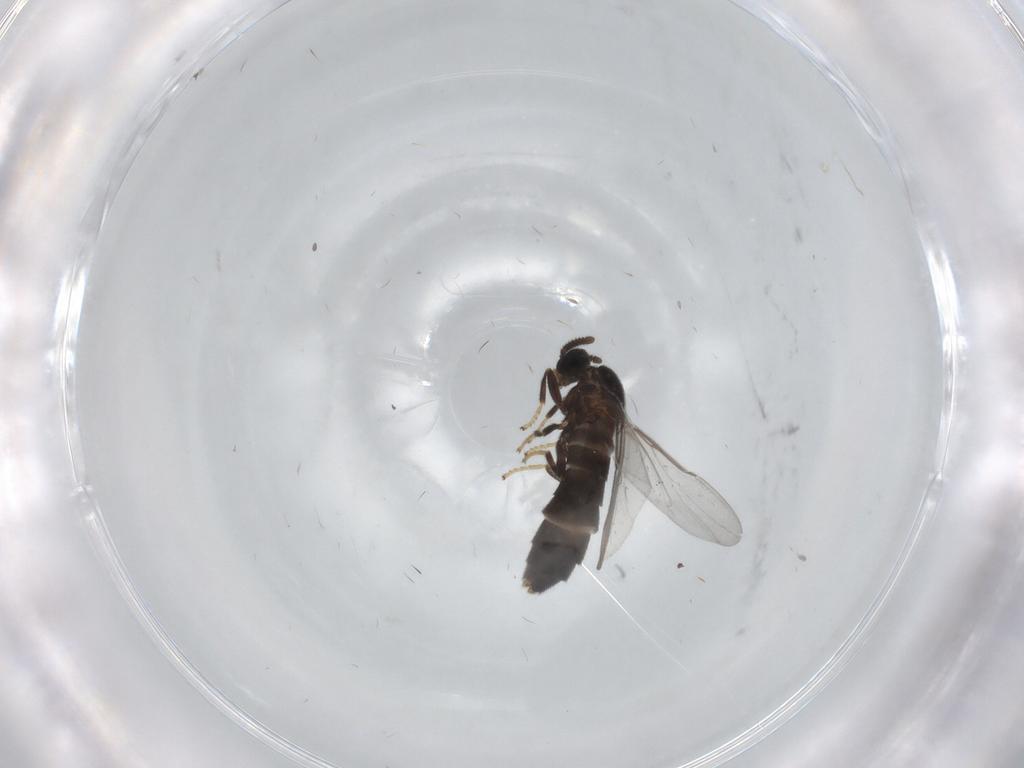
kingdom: Animalia
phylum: Arthropoda
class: Insecta
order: Diptera
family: Scatopsidae
